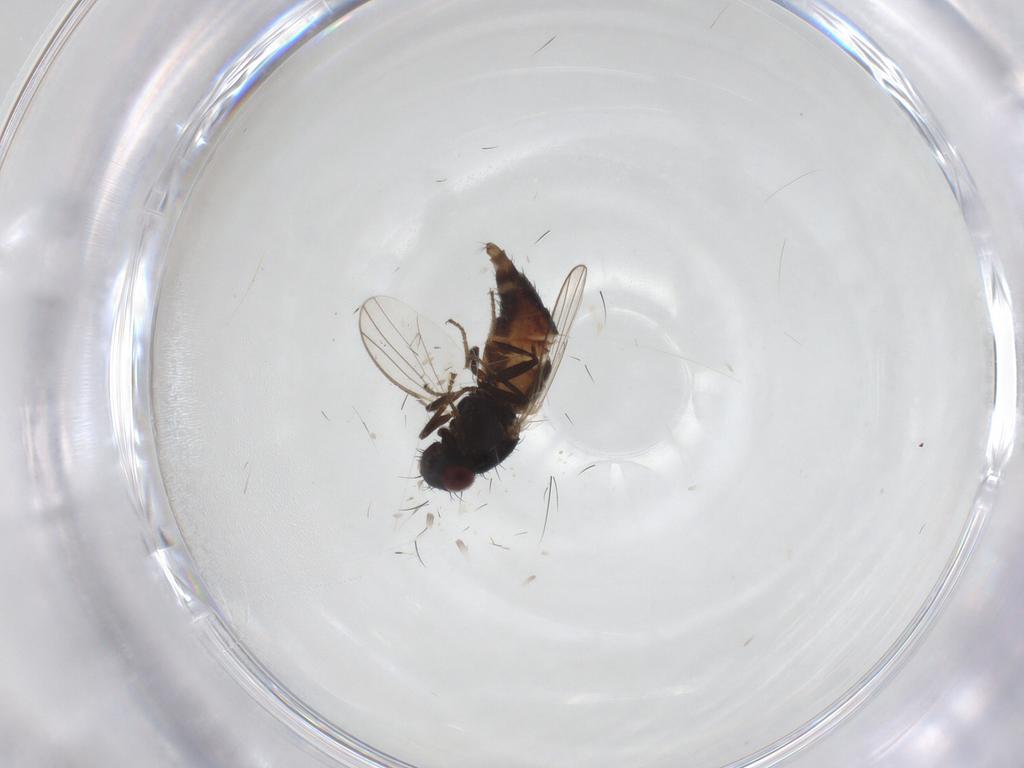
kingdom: Animalia
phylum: Arthropoda
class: Insecta
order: Diptera
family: Carnidae
